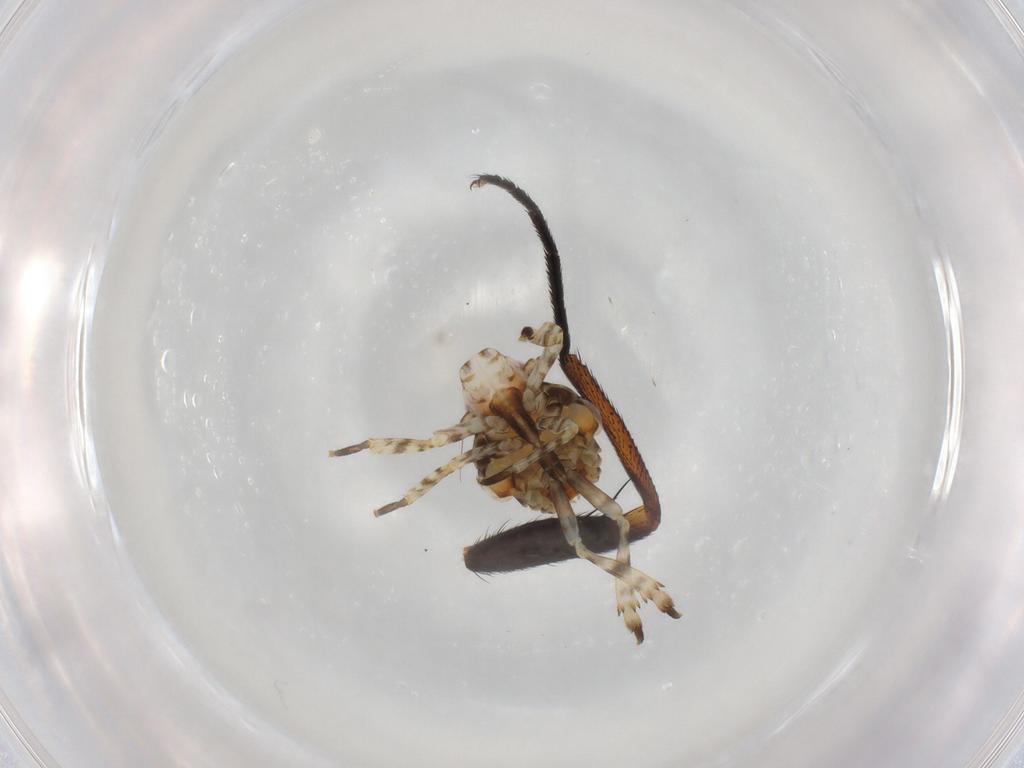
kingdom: Animalia
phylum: Arthropoda
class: Insecta
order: Hemiptera
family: Eurybrachidae
